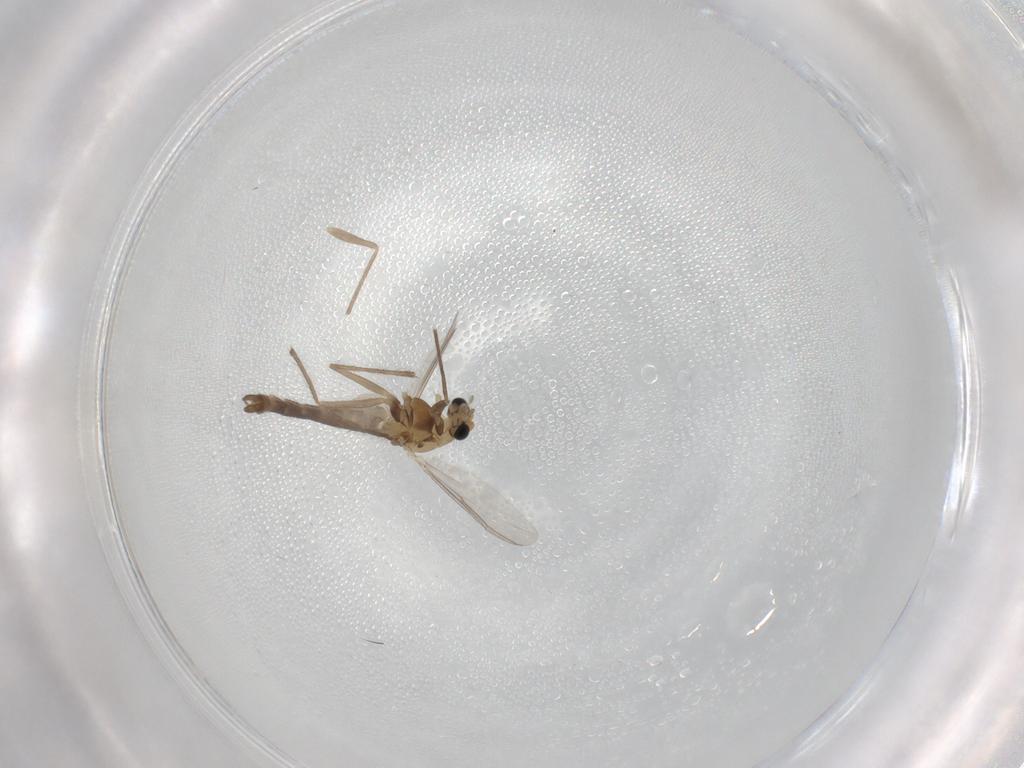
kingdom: Animalia
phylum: Arthropoda
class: Insecta
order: Diptera
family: Chironomidae
